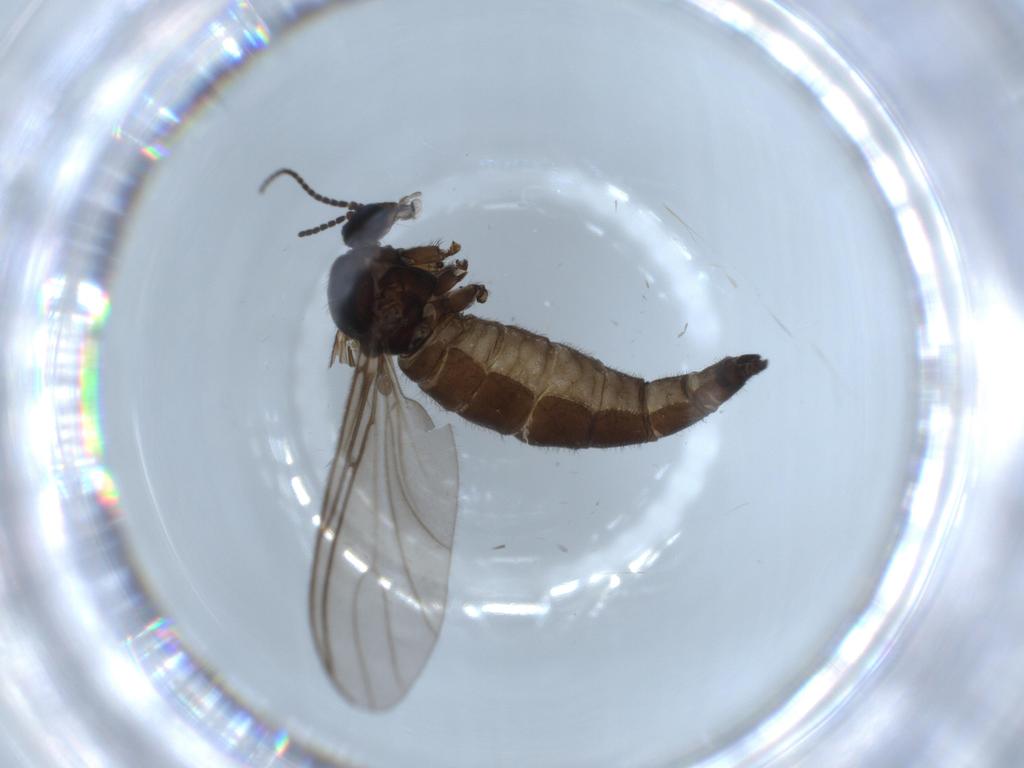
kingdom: Animalia
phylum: Arthropoda
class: Insecta
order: Diptera
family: Sciaridae
